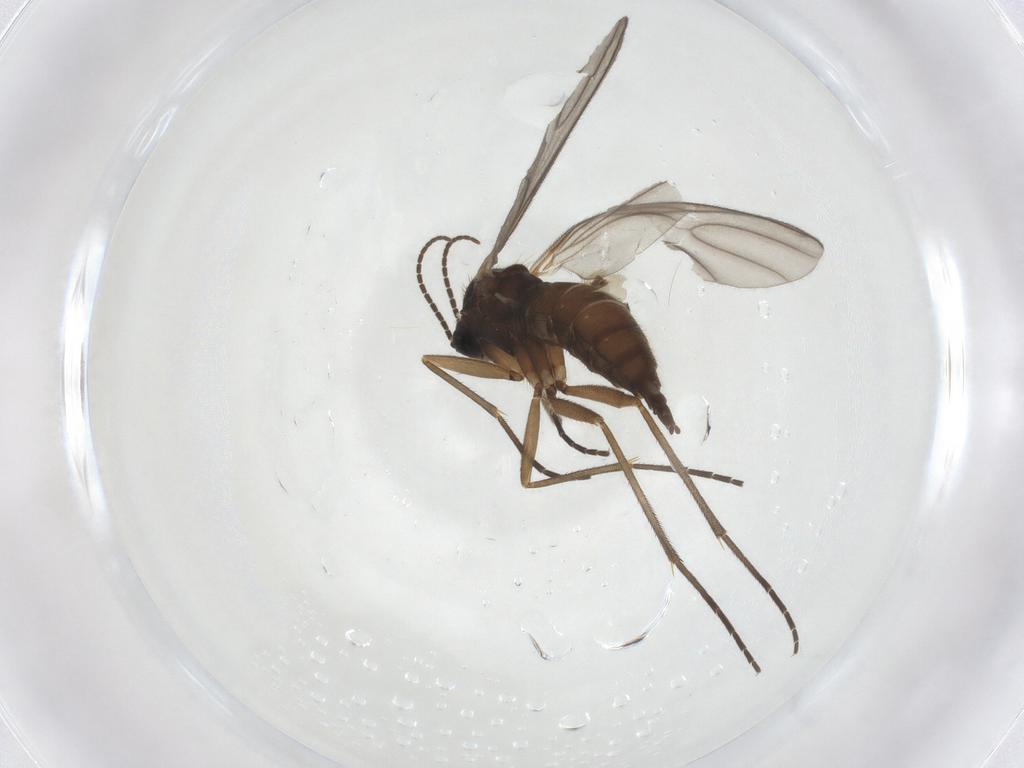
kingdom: Animalia
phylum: Arthropoda
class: Insecta
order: Diptera
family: Sciaridae
